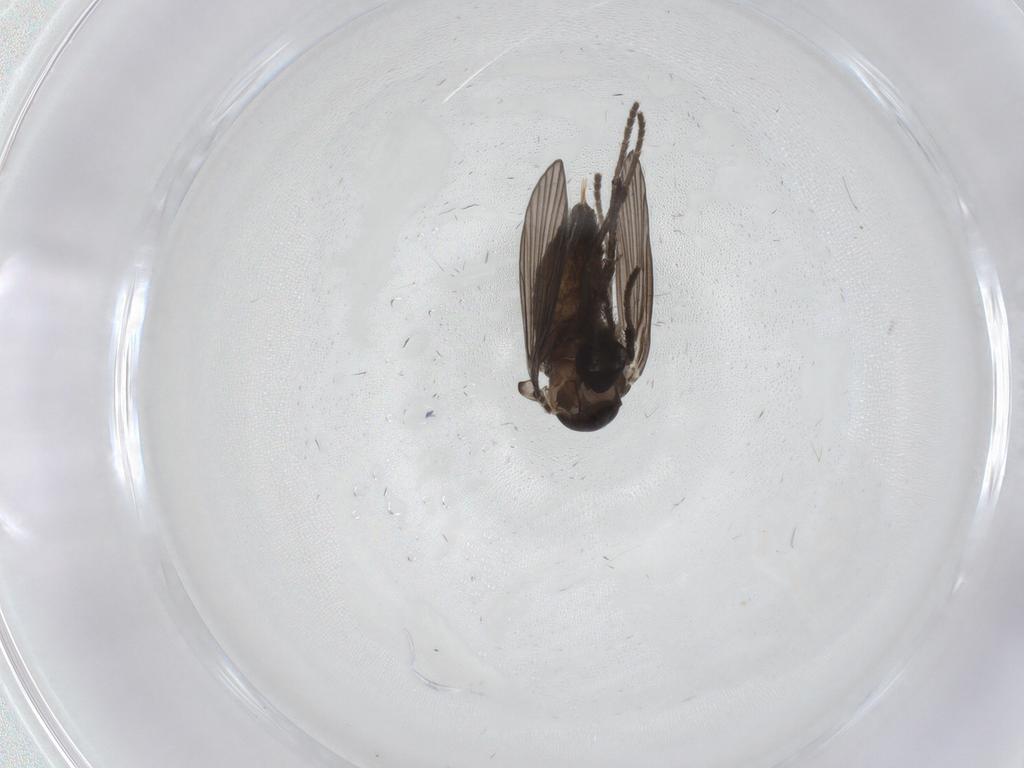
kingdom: Animalia
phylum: Arthropoda
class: Insecta
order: Diptera
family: Psychodidae
